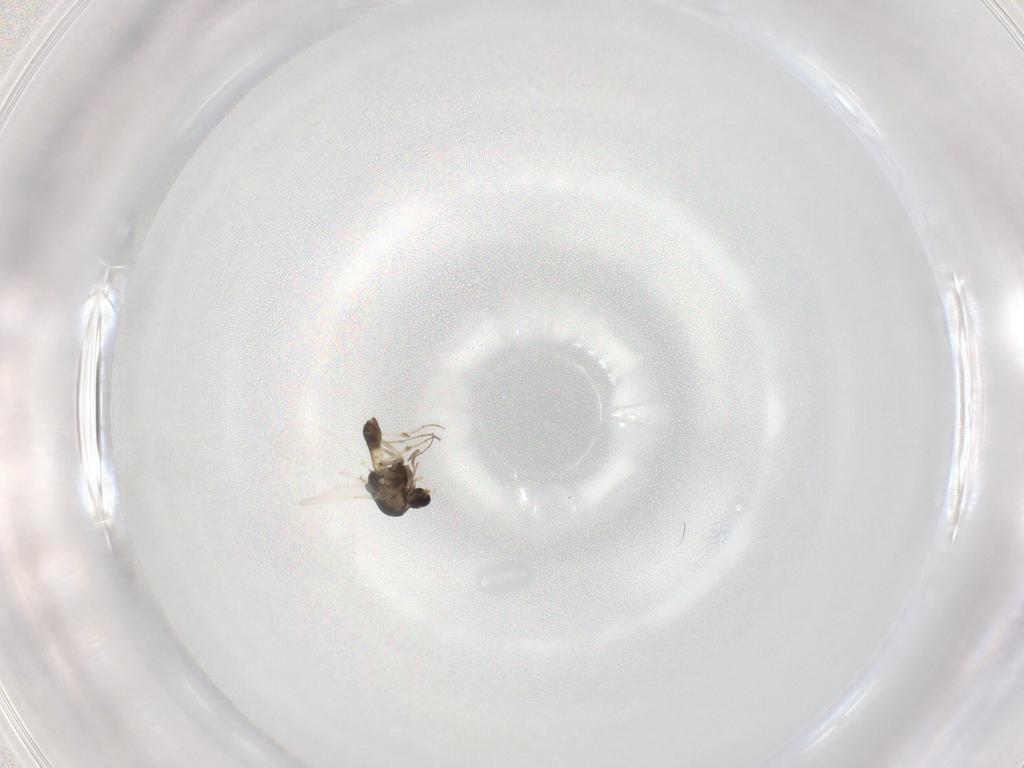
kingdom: Animalia
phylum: Arthropoda
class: Insecta
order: Diptera
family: Chironomidae
